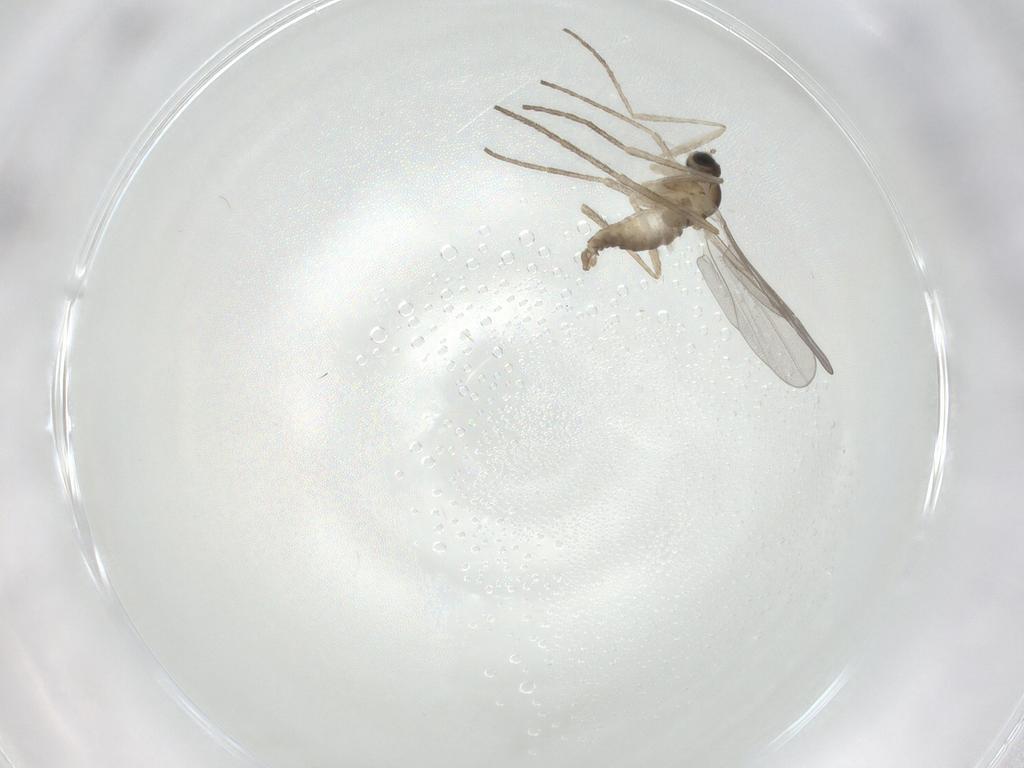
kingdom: Animalia
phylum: Arthropoda
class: Insecta
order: Diptera
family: Cecidomyiidae
